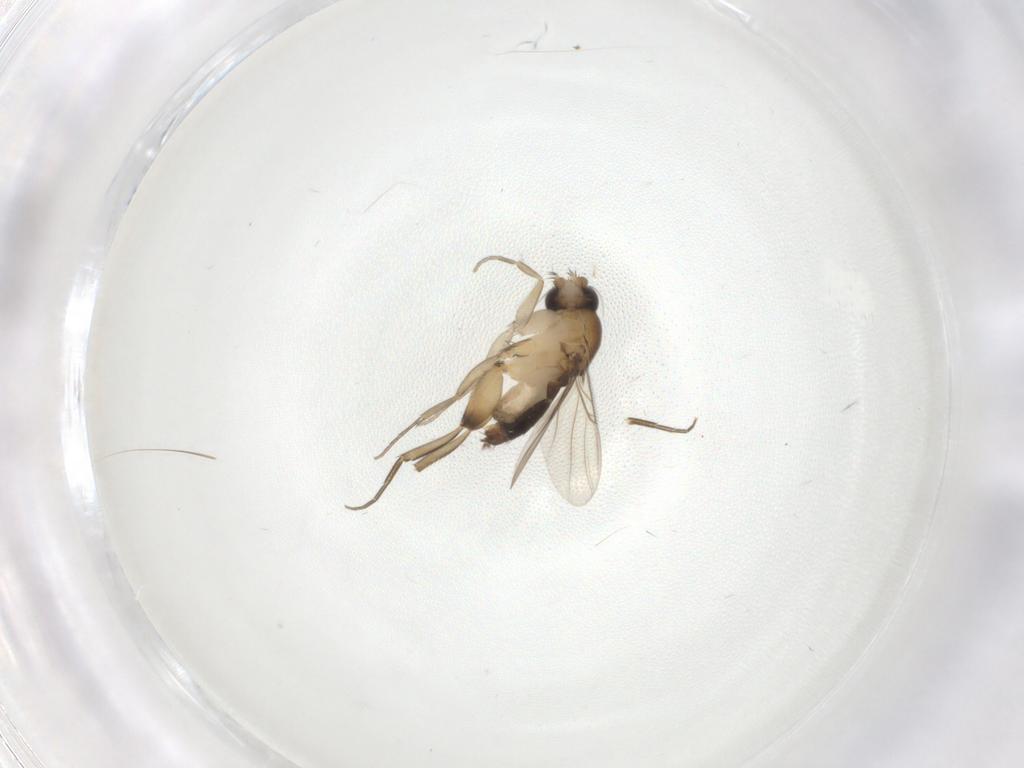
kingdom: Animalia
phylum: Arthropoda
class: Insecta
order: Diptera
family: Phoridae
